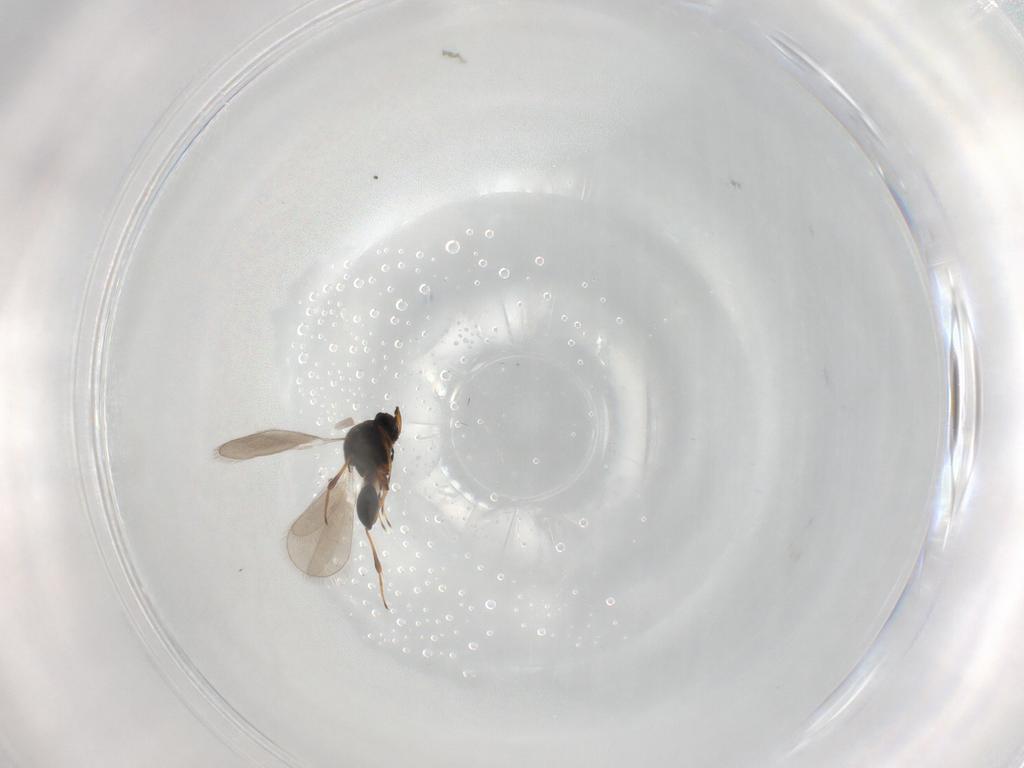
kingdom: Animalia
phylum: Arthropoda
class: Insecta
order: Hymenoptera
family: Platygastridae
